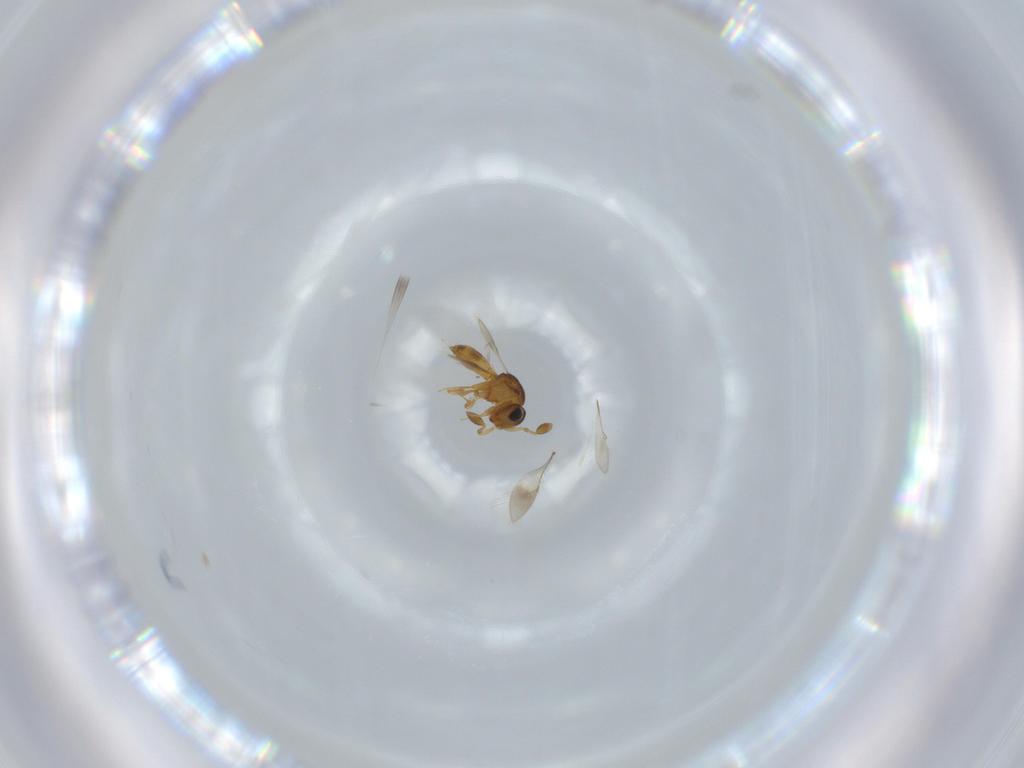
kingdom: Animalia
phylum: Arthropoda
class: Insecta
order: Hymenoptera
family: Scelionidae
